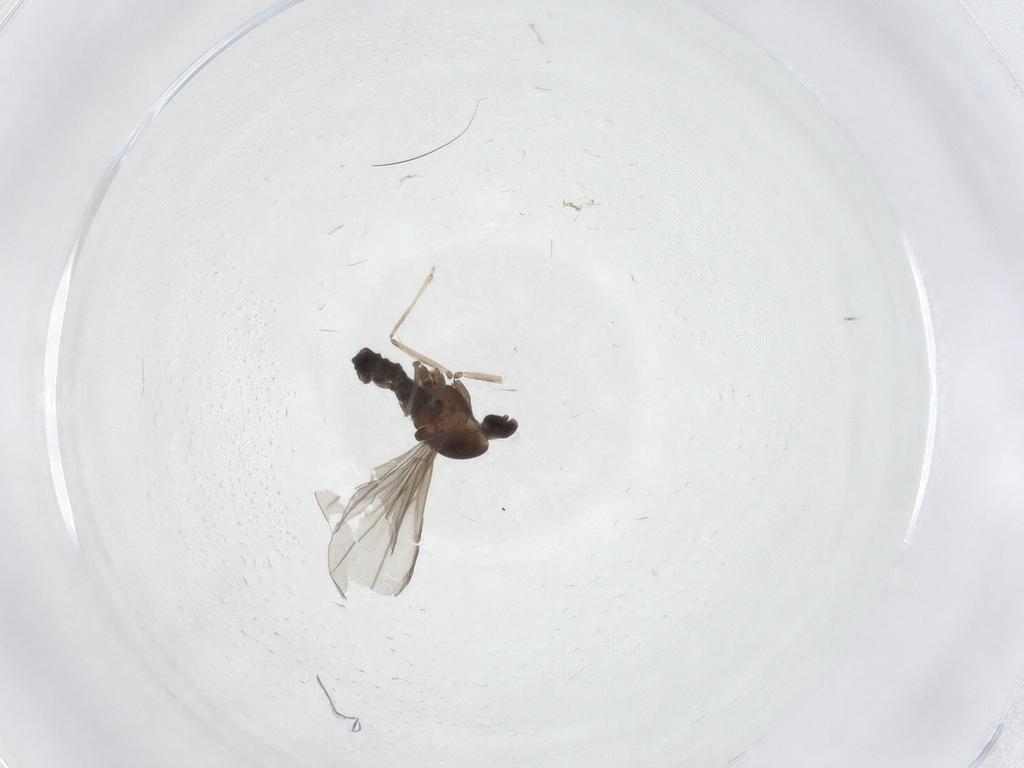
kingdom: Animalia
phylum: Arthropoda
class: Insecta
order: Diptera
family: Cecidomyiidae
